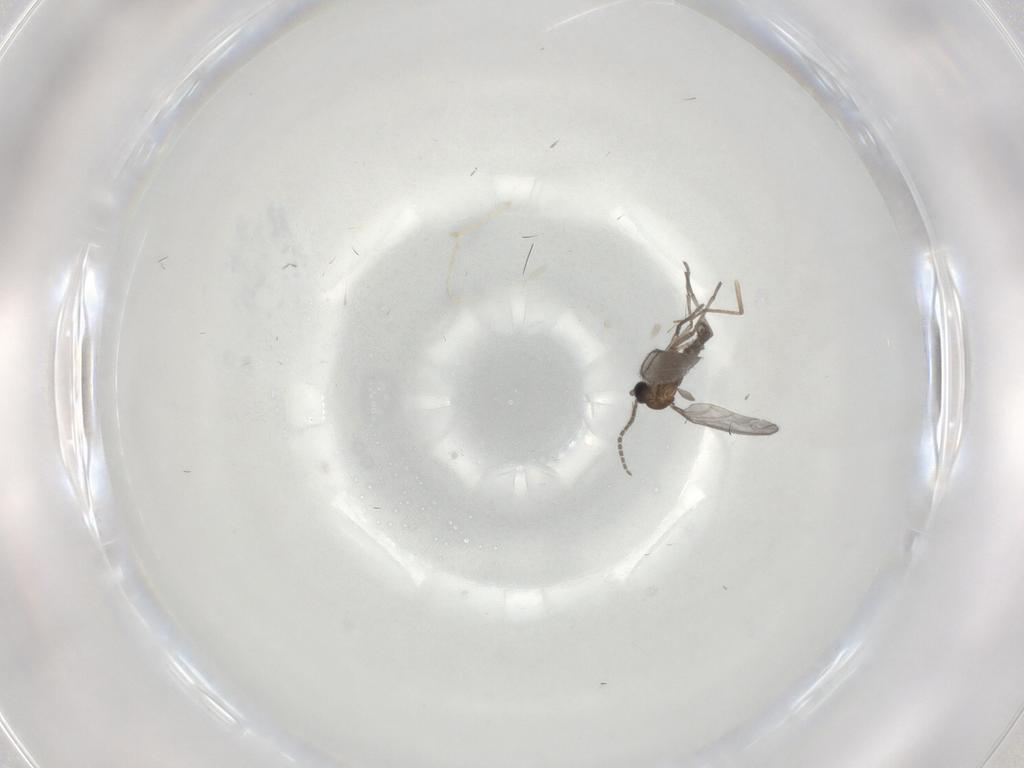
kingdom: Animalia
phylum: Arthropoda
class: Insecta
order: Diptera
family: Sciaridae
